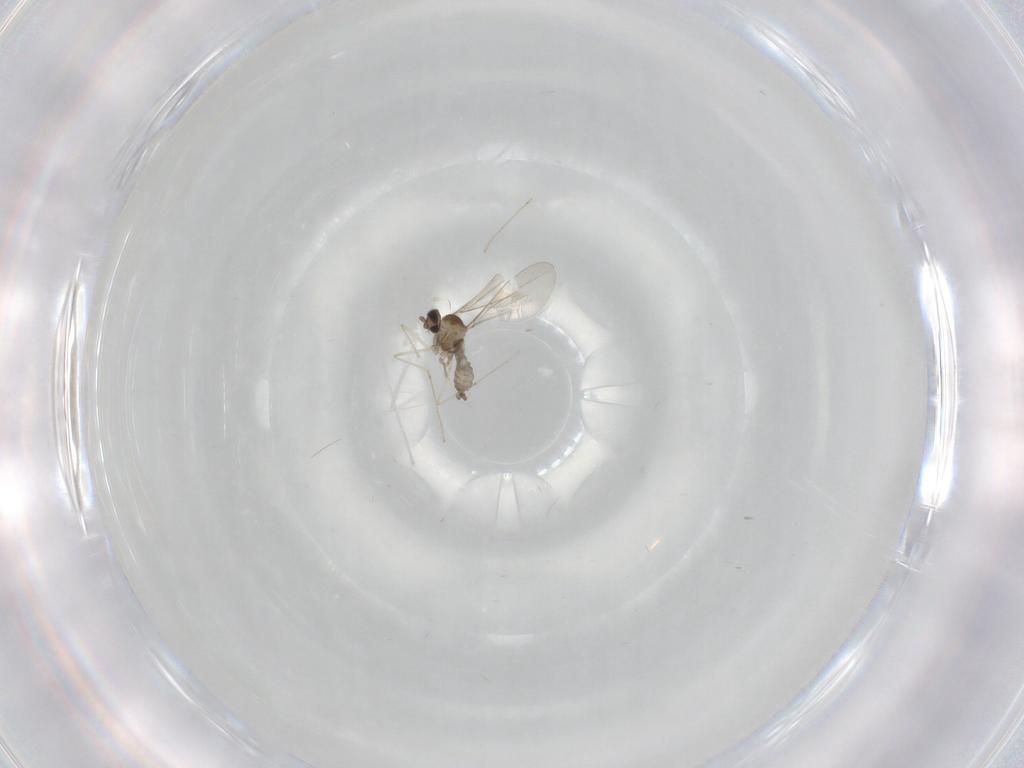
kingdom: Animalia
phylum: Arthropoda
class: Insecta
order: Diptera
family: Cecidomyiidae
